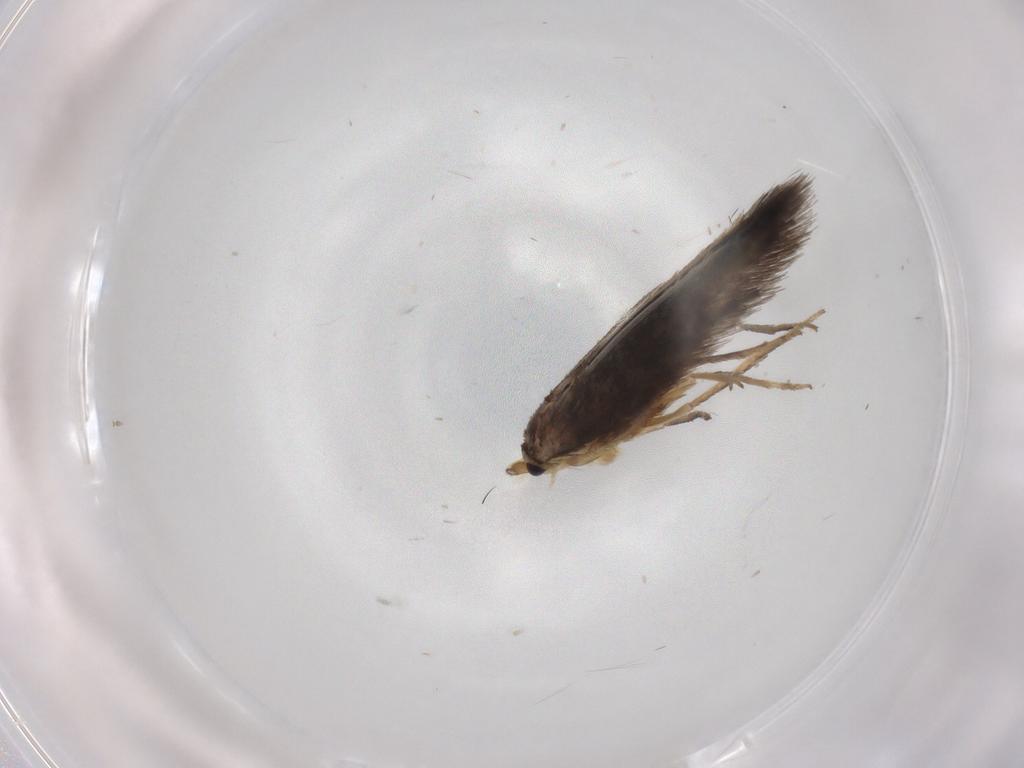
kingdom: Animalia
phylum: Arthropoda
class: Insecta
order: Lepidoptera
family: Nepticulidae
